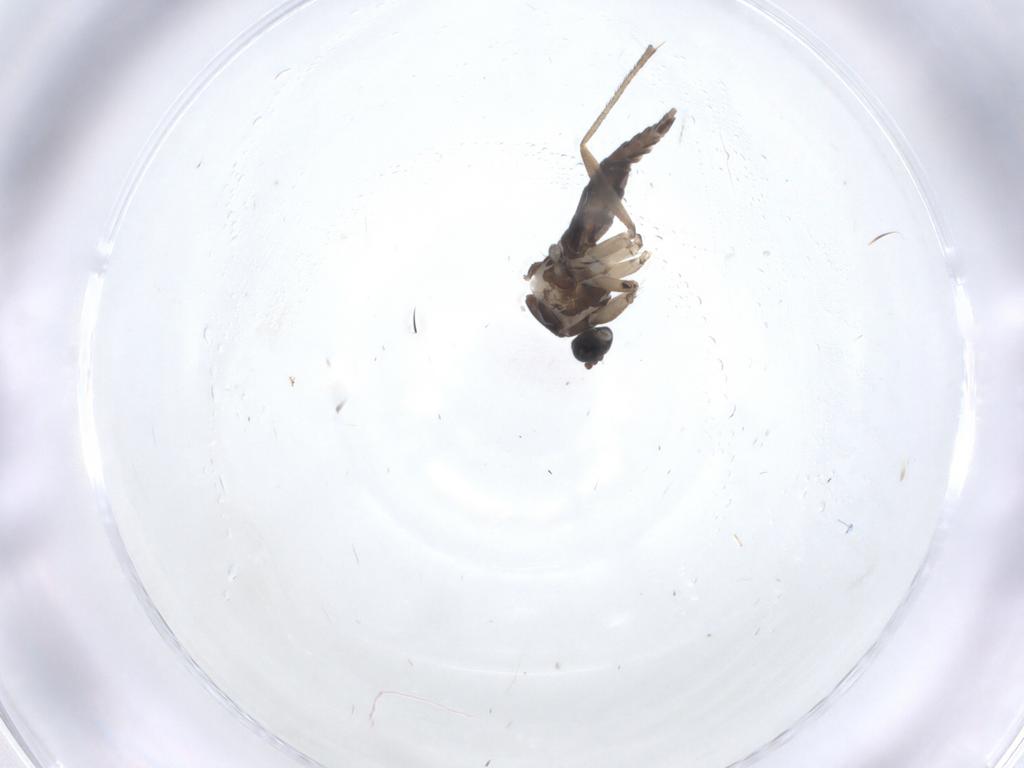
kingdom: Animalia
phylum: Arthropoda
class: Insecta
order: Diptera
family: Sciaridae
